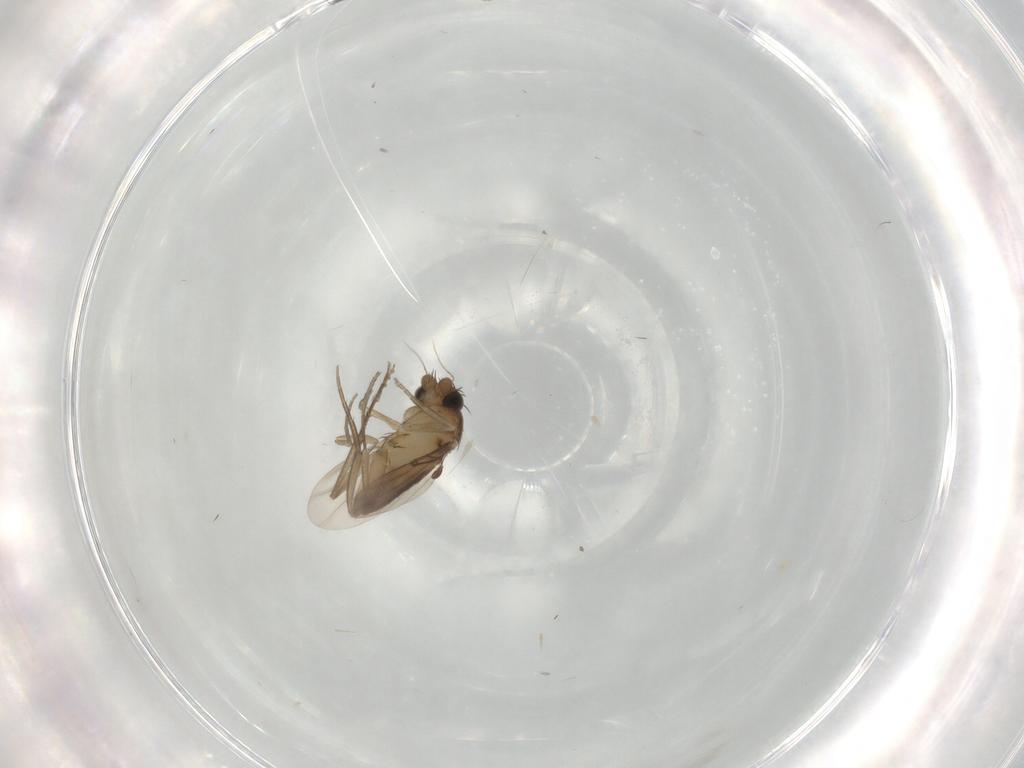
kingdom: Animalia
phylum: Arthropoda
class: Insecta
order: Diptera
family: Phoridae
